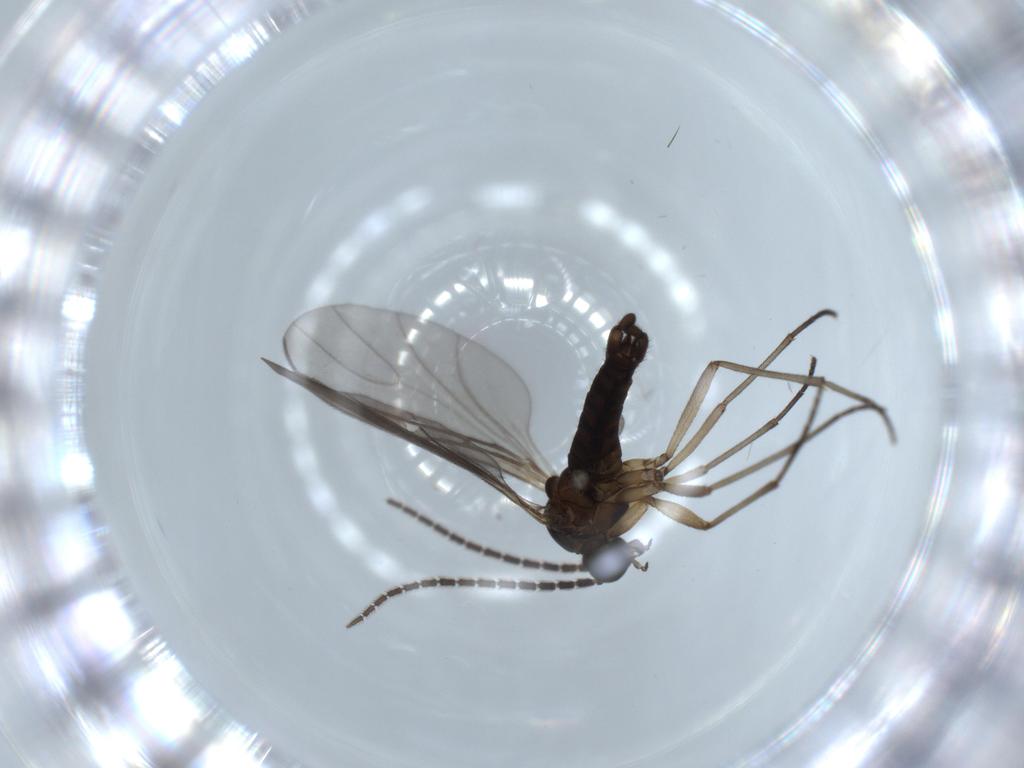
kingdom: Animalia
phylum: Arthropoda
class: Insecta
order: Diptera
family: Sciaridae
